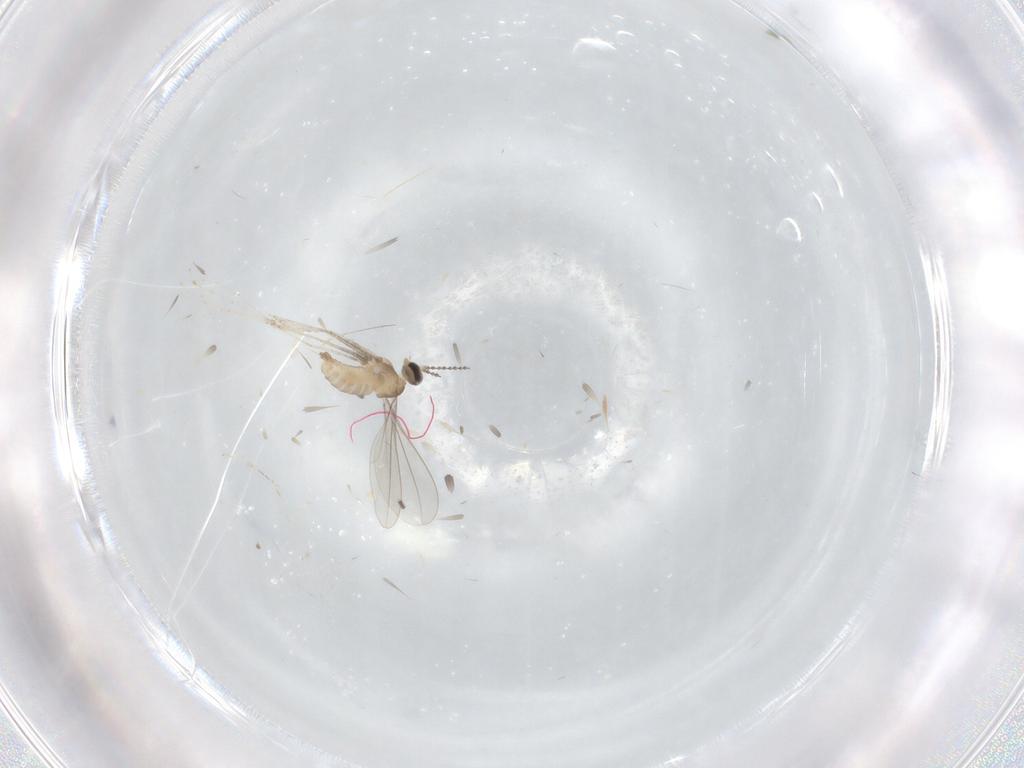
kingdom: Animalia
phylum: Arthropoda
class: Insecta
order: Diptera
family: Cecidomyiidae
